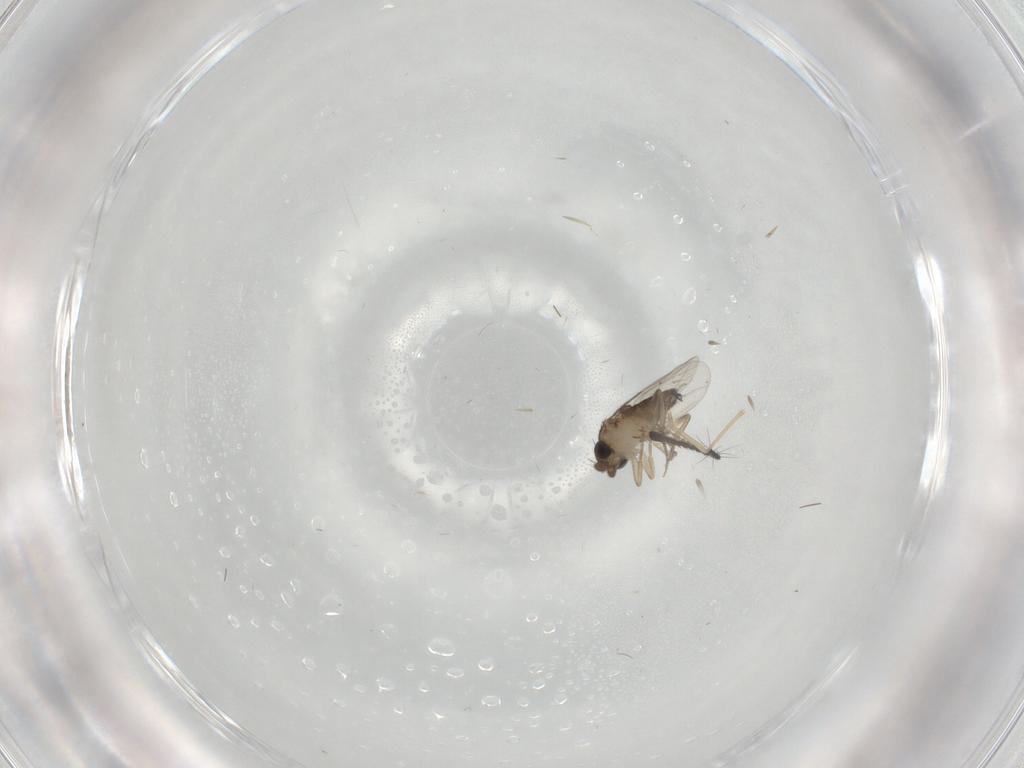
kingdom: Animalia
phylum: Arthropoda
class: Insecta
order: Diptera
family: Phoridae
